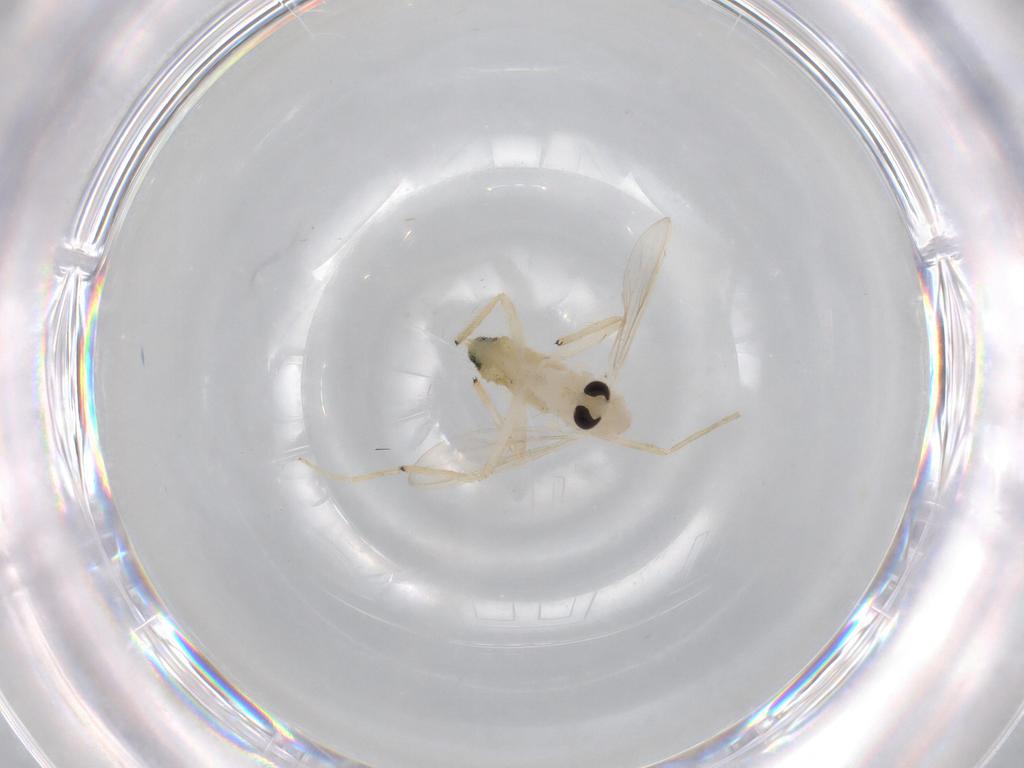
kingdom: Animalia
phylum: Arthropoda
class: Insecta
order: Diptera
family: Chironomidae
